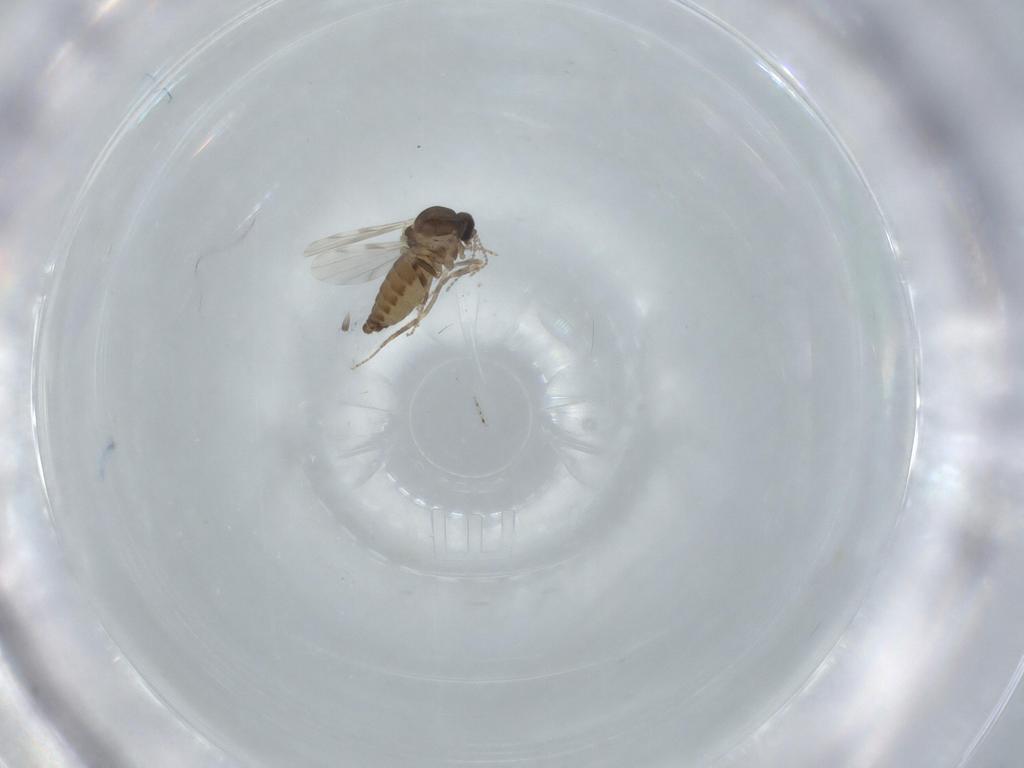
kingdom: Animalia
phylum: Arthropoda
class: Insecta
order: Diptera
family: Ceratopogonidae
